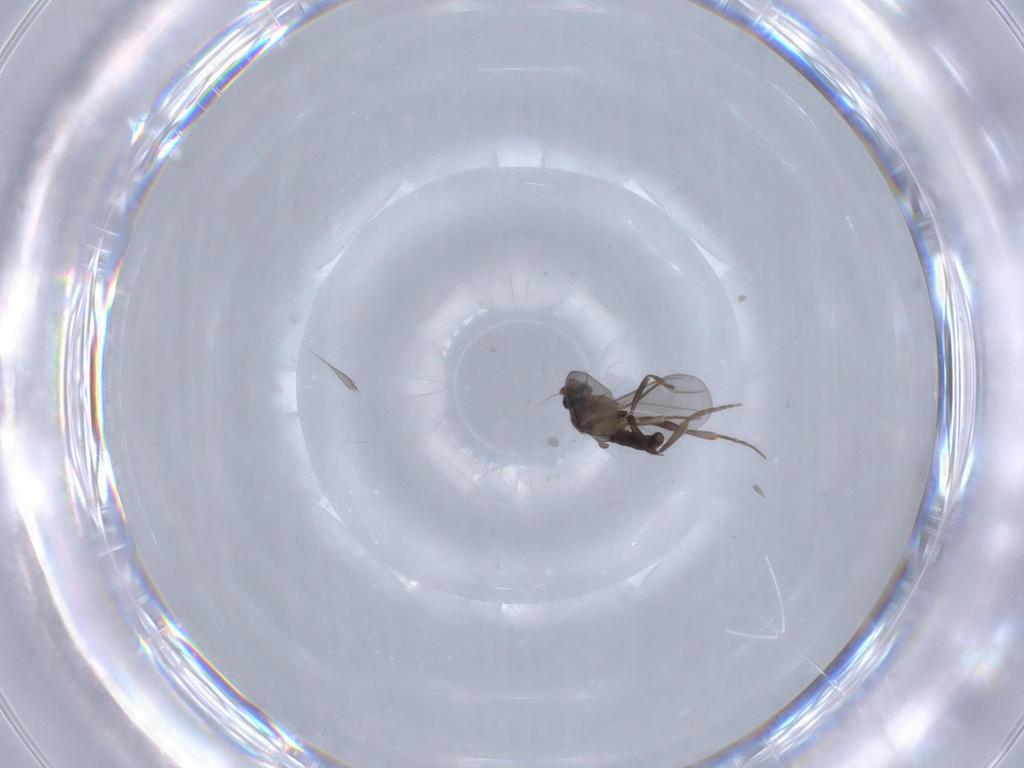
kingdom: Animalia
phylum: Arthropoda
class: Insecta
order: Diptera
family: Phoridae
